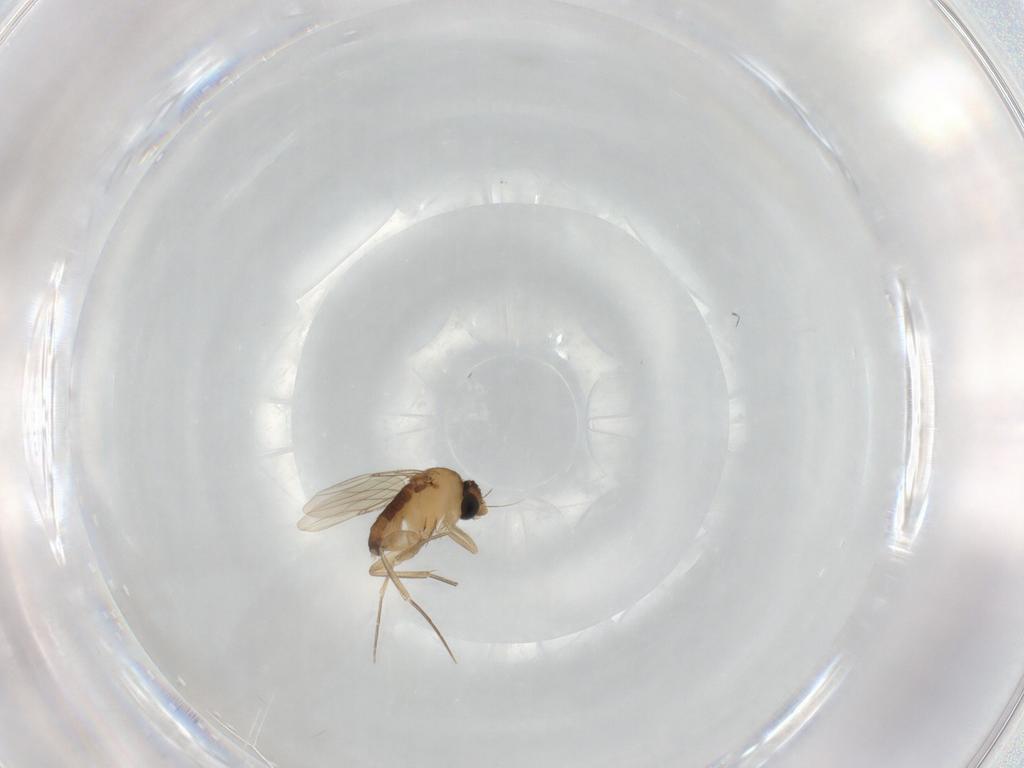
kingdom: Animalia
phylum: Arthropoda
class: Insecta
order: Diptera
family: Phoridae
